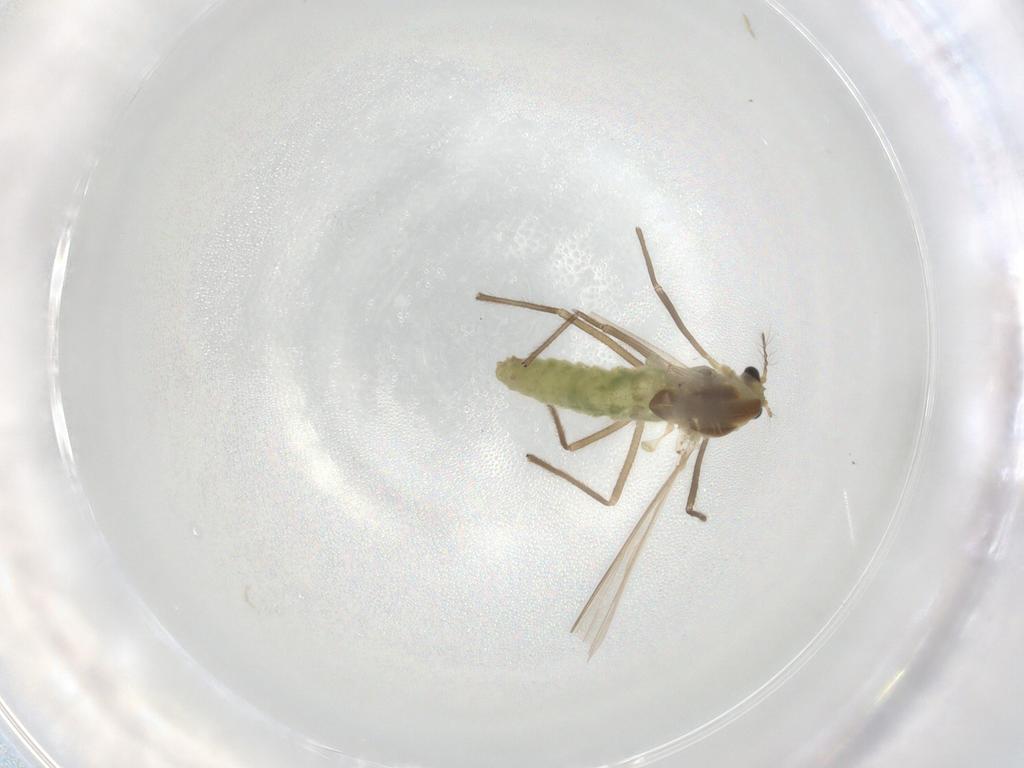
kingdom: Animalia
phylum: Arthropoda
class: Insecta
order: Diptera
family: Chironomidae
